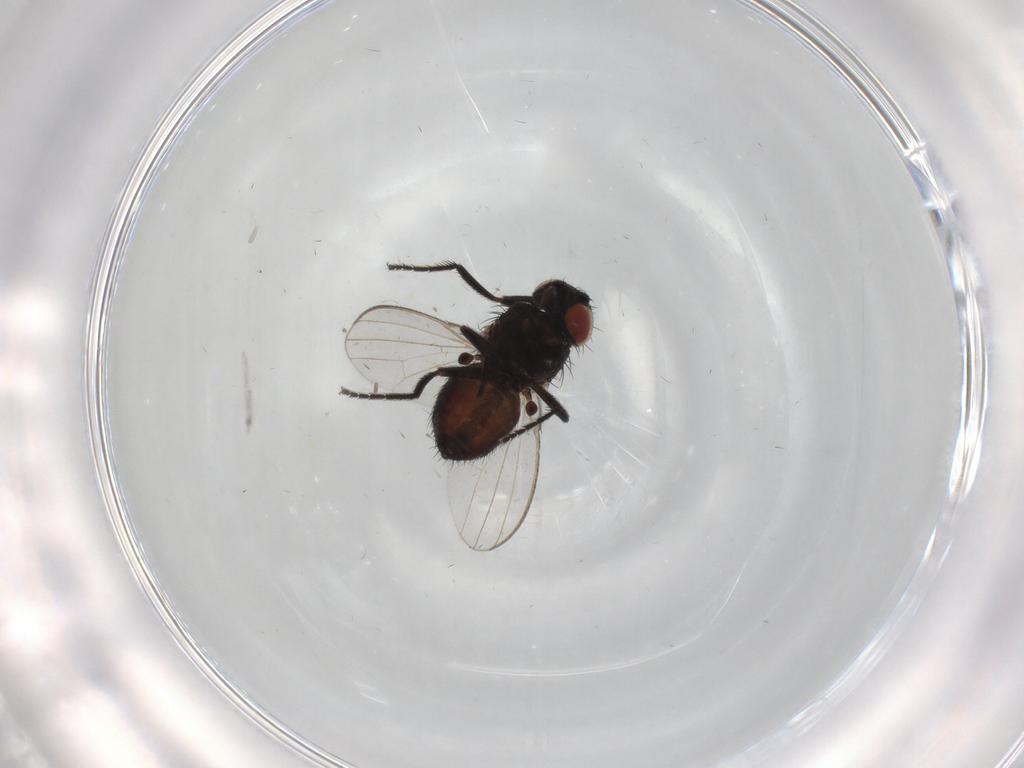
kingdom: Animalia
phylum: Arthropoda
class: Insecta
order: Diptera
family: Milichiidae
